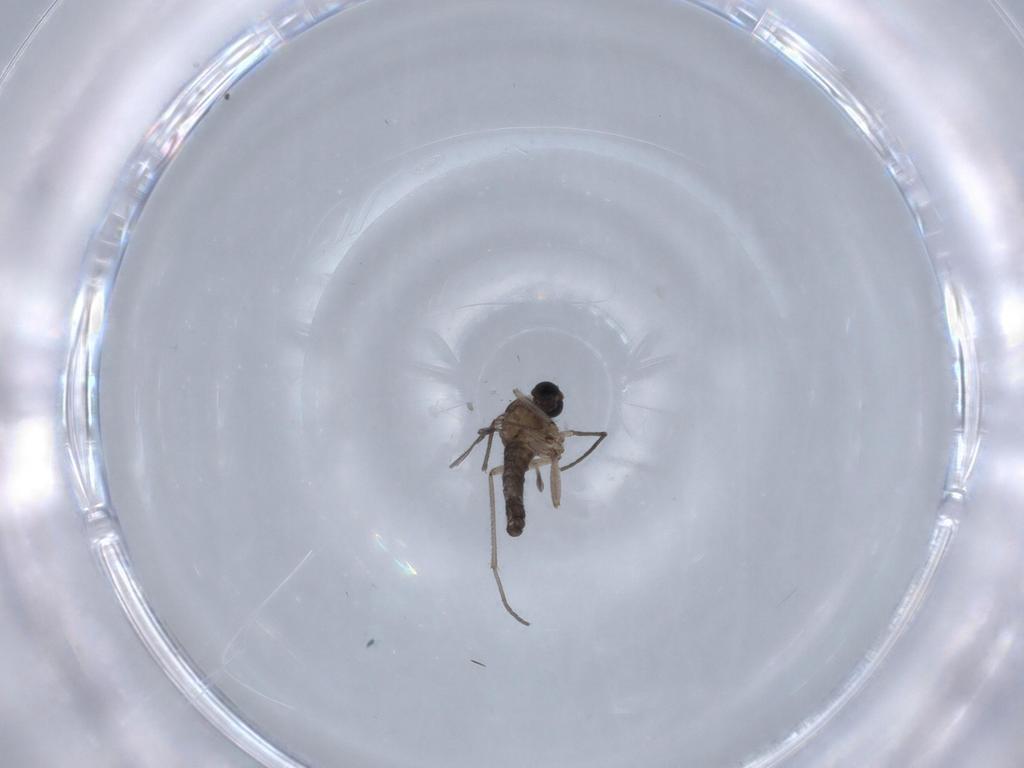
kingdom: Animalia
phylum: Arthropoda
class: Insecta
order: Diptera
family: Sciaridae
